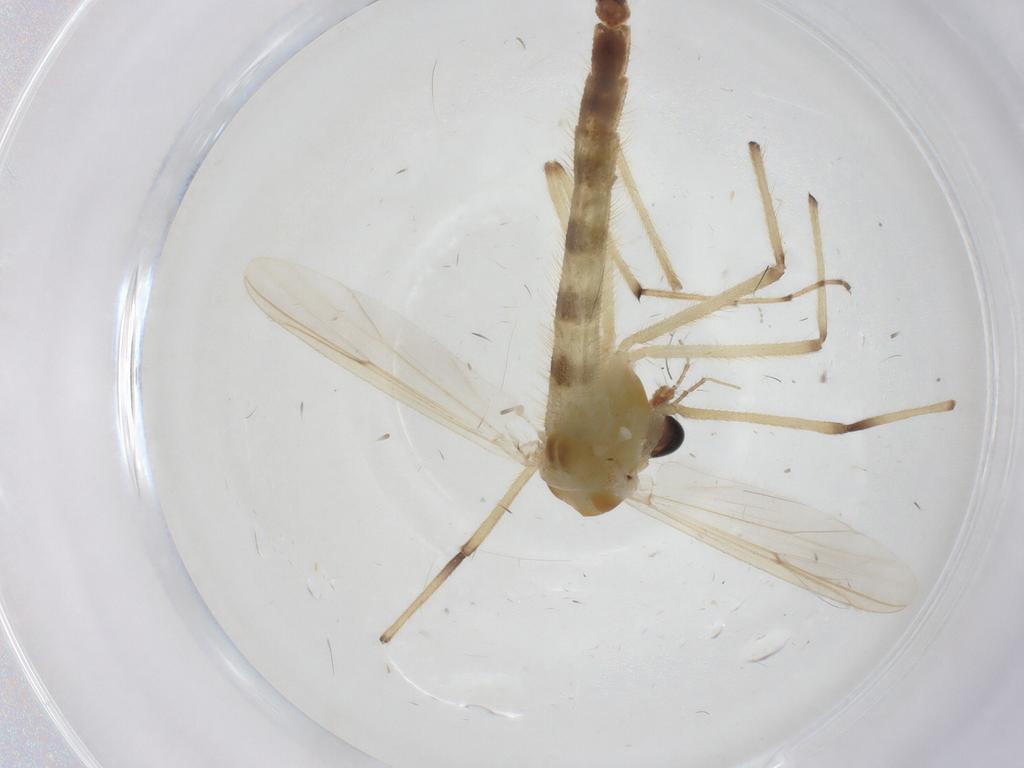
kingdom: Animalia
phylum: Arthropoda
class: Insecta
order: Diptera
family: Chironomidae
